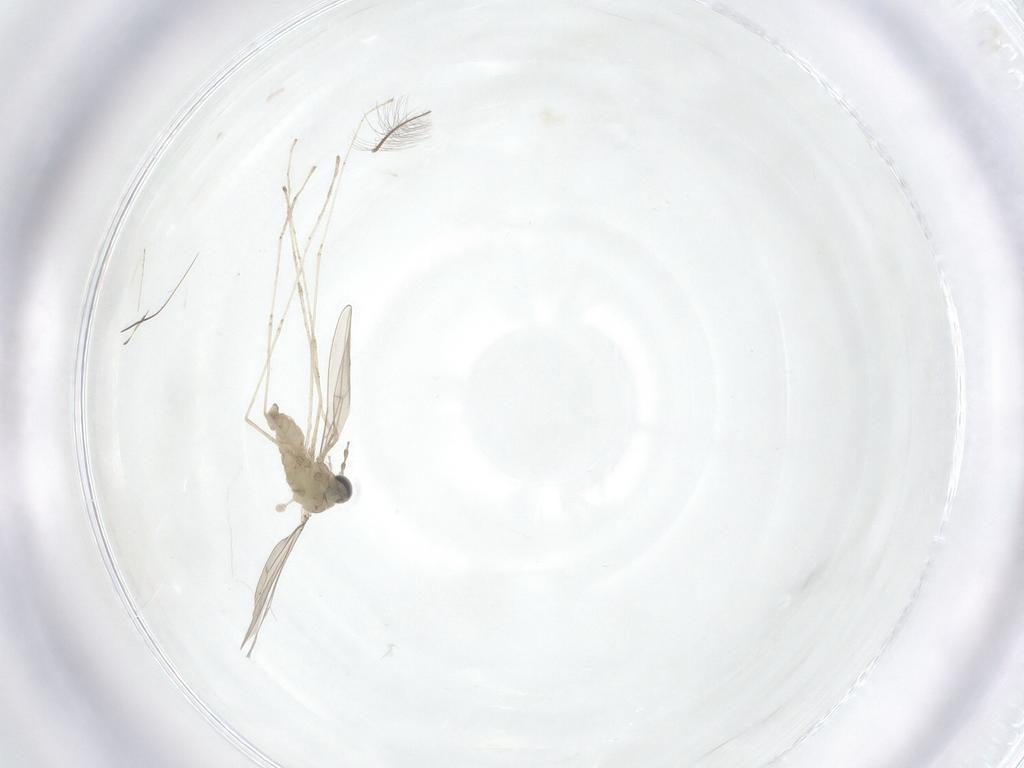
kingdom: Animalia
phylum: Arthropoda
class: Insecta
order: Diptera
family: Cecidomyiidae
